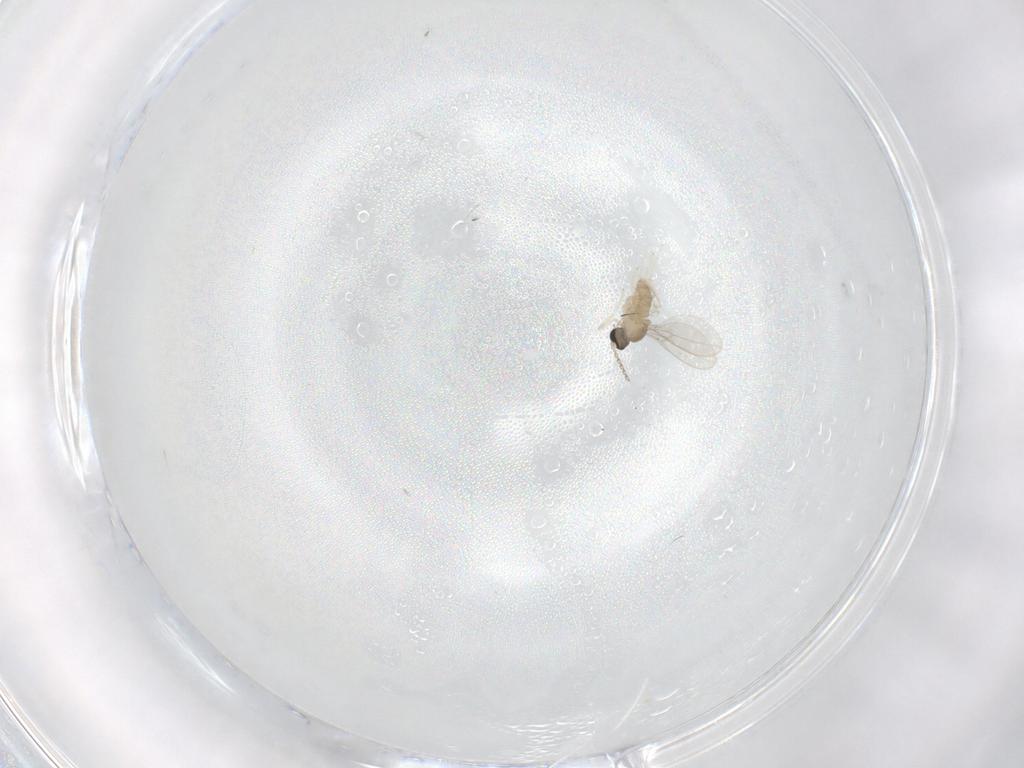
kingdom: Animalia
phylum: Arthropoda
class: Insecta
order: Diptera
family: Cecidomyiidae
